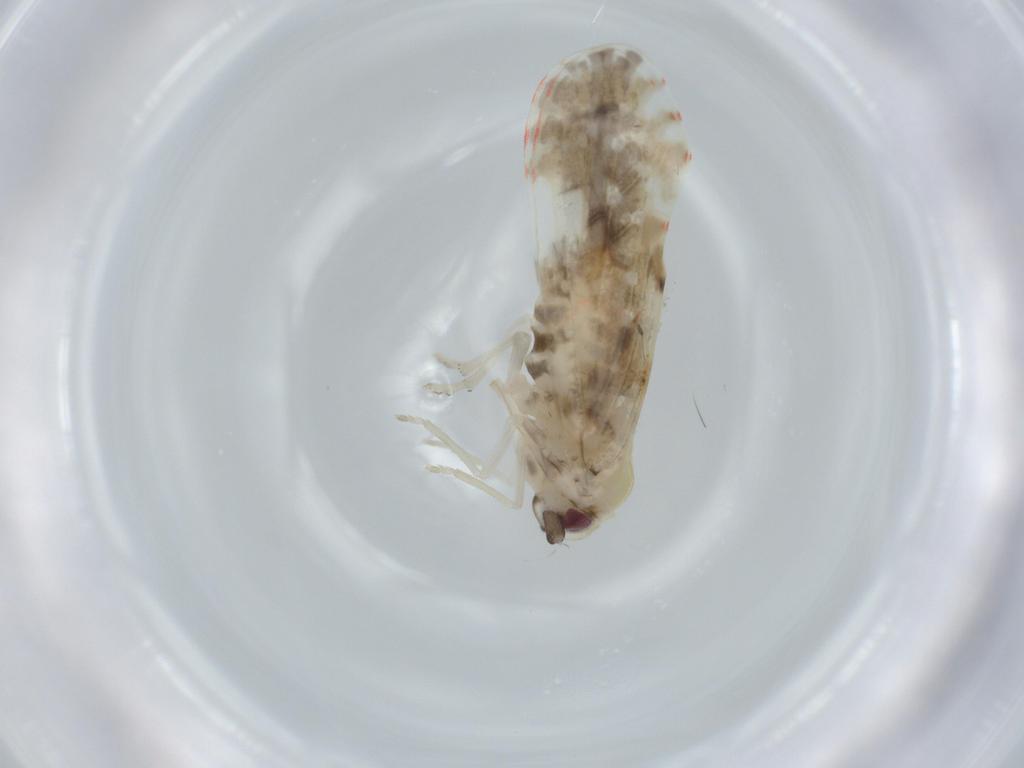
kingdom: Animalia
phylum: Arthropoda
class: Insecta
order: Hemiptera
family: Derbidae
